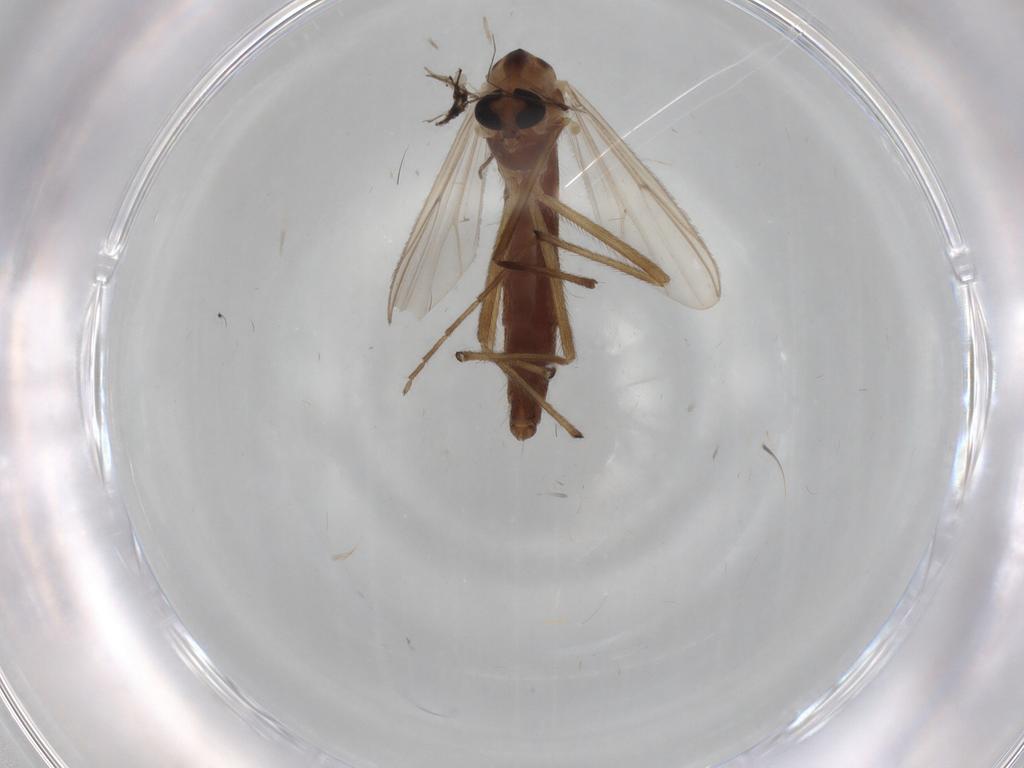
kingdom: Animalia
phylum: Arthropoda
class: Insecta
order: Diptera
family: Chironomidae
